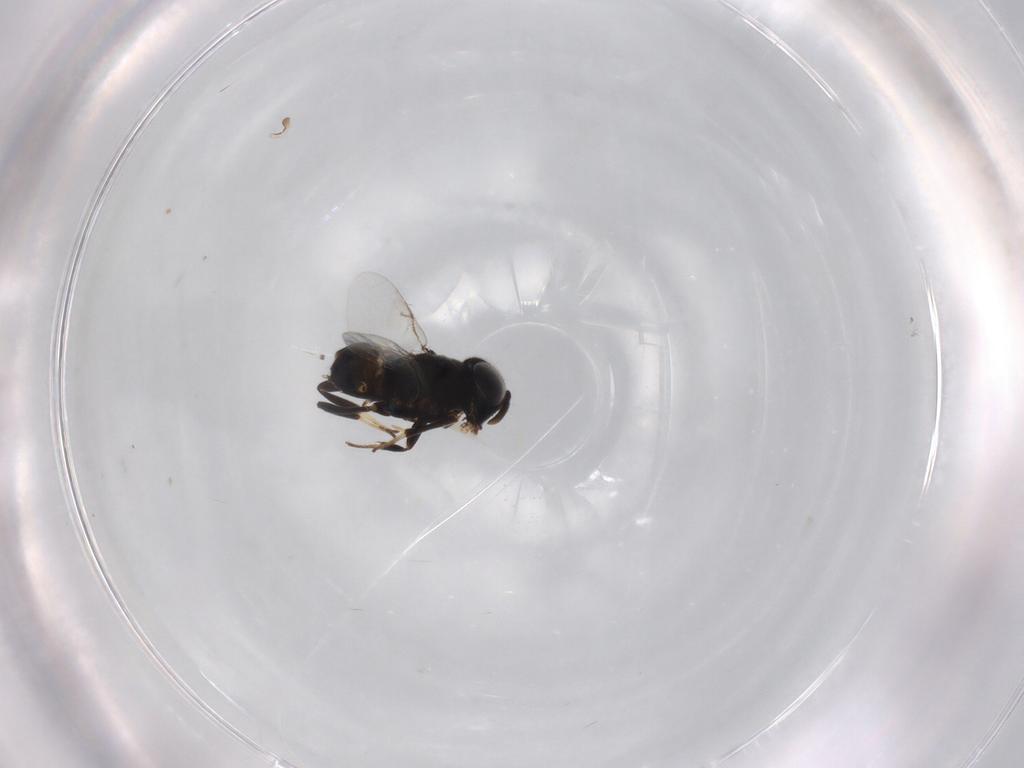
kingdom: Animalia
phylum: Arthropoda
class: Insecta
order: Hymenoptera
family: Encyrtidae
